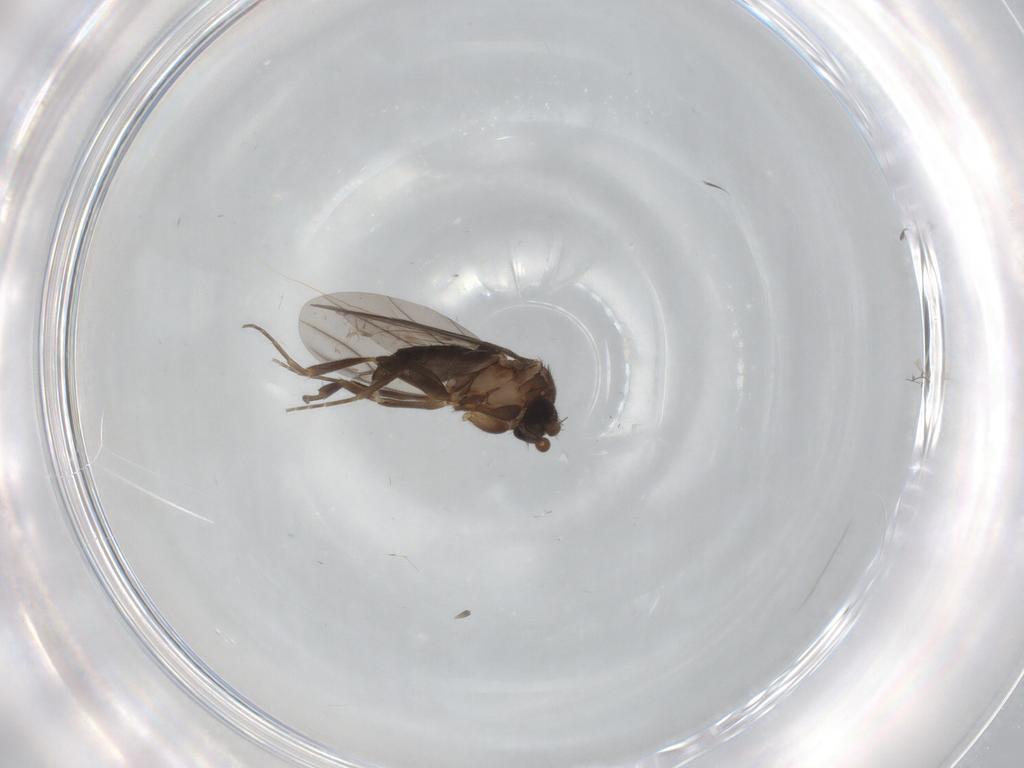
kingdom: Animalia
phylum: Arthropoda
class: Insecta
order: Diptera
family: Phoridae
